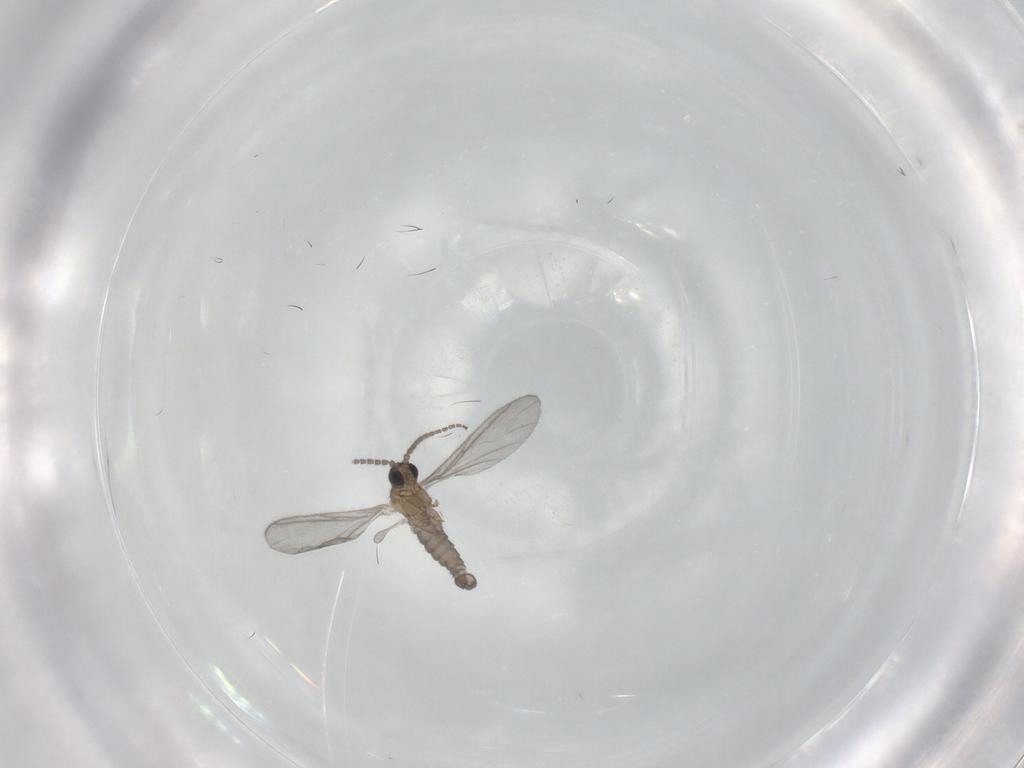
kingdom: Animalia
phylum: Arthropoda
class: Insecta
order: Diptera
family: Sciaridae
